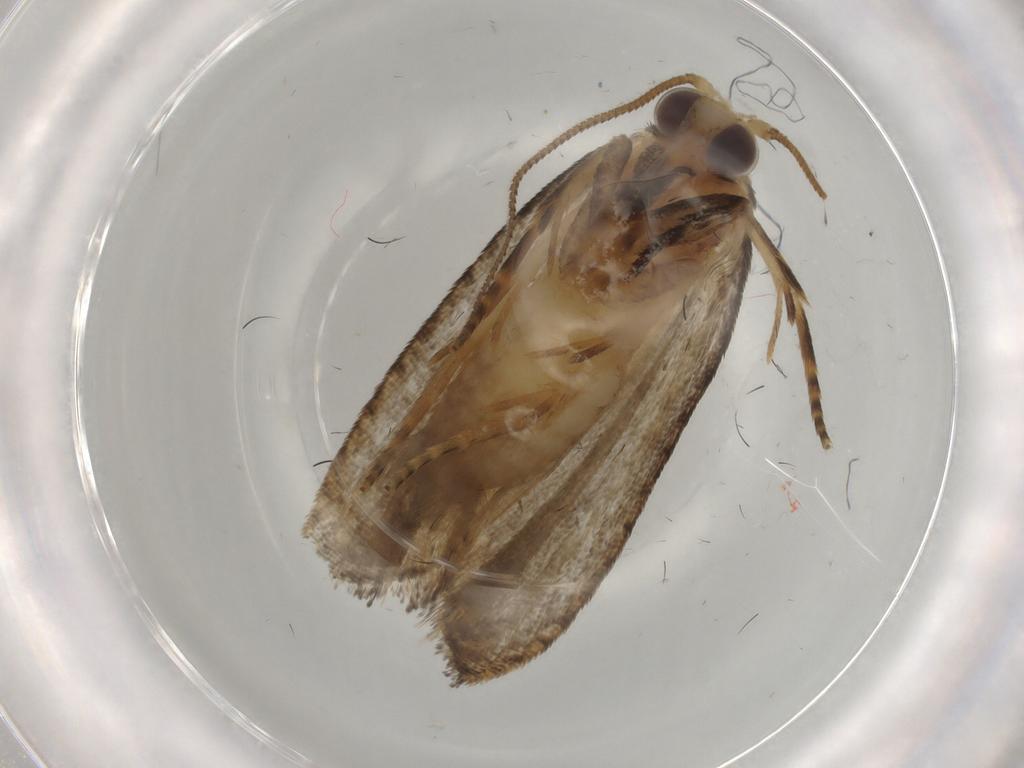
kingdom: Animalia
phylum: Arthropoda
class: Insecta
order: Lepidoptera
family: Tortricidae
